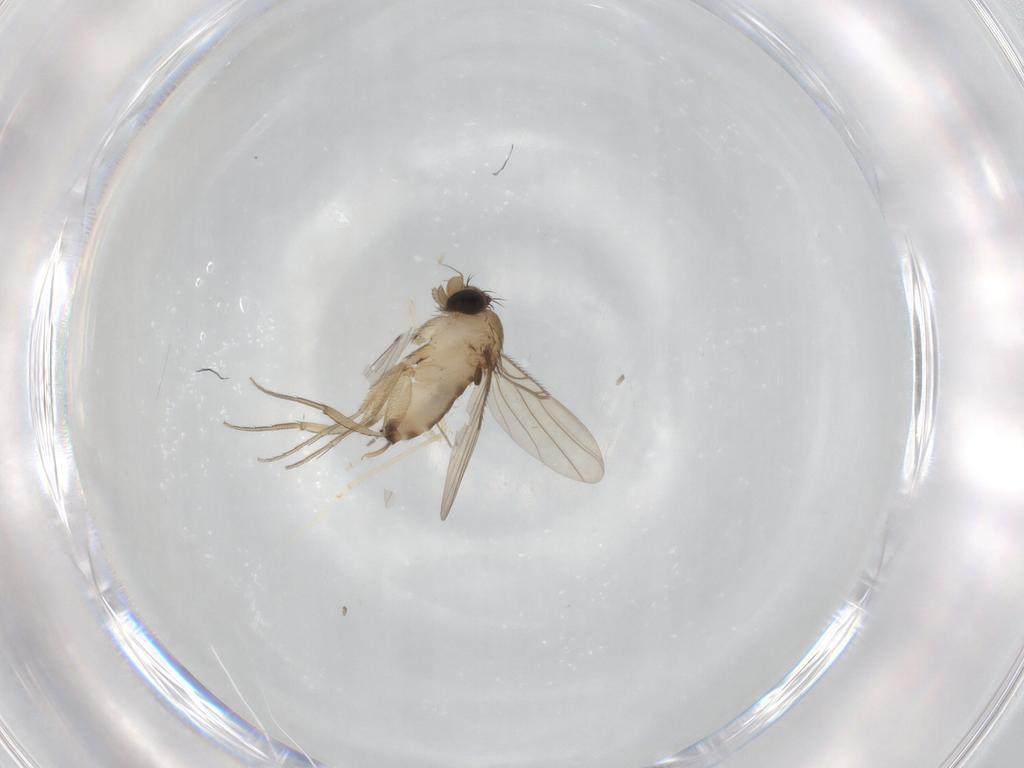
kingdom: Animalia
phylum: Arthropoda
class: Insecta
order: Diptera
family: Phoridae
